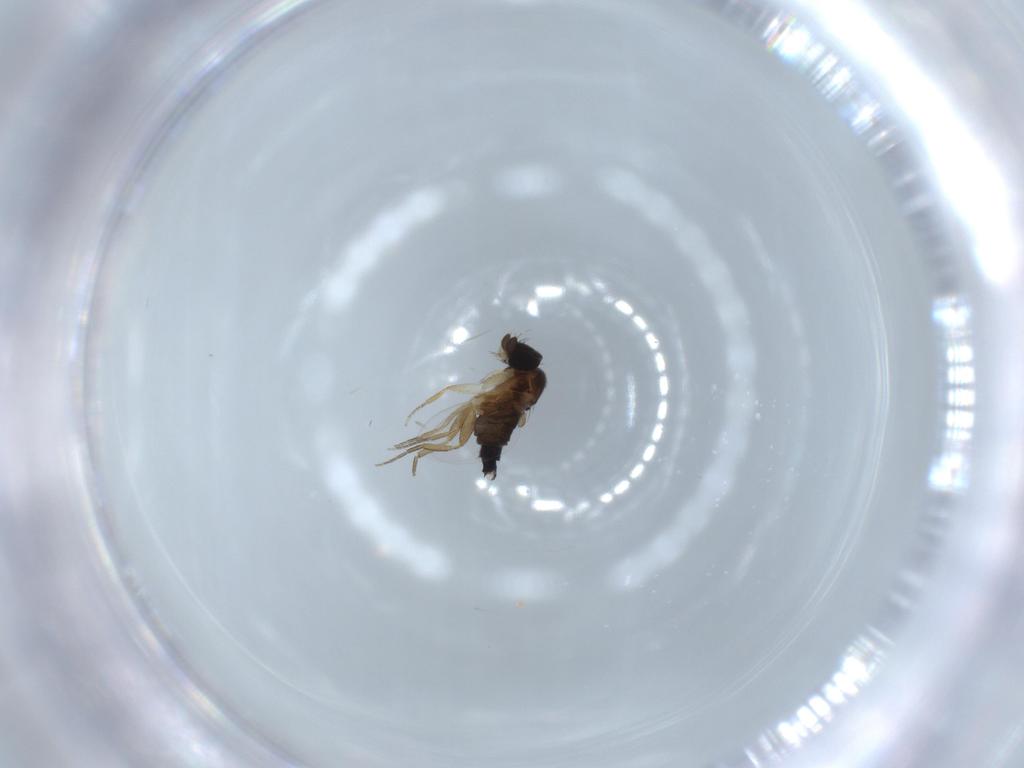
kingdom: Animalia
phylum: Arthropoda
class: Insecta
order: Diptera
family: Phoridae
